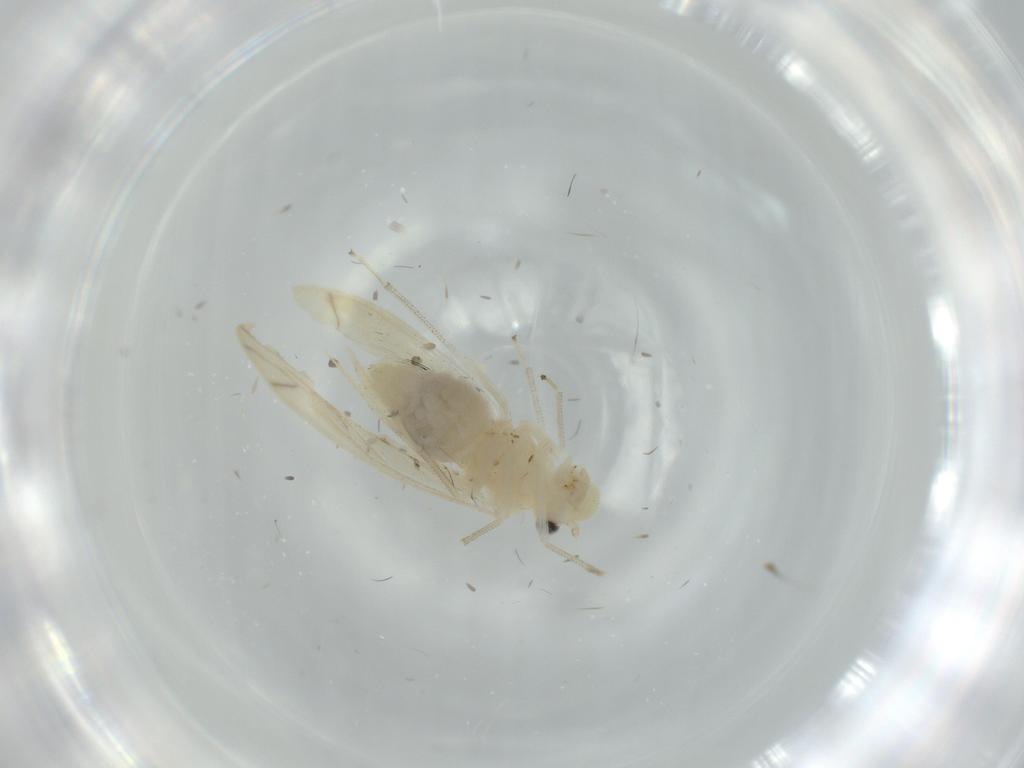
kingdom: Animalia
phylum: Arthropoda
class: Insecta
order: Psocodea
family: Caeciliusidae
